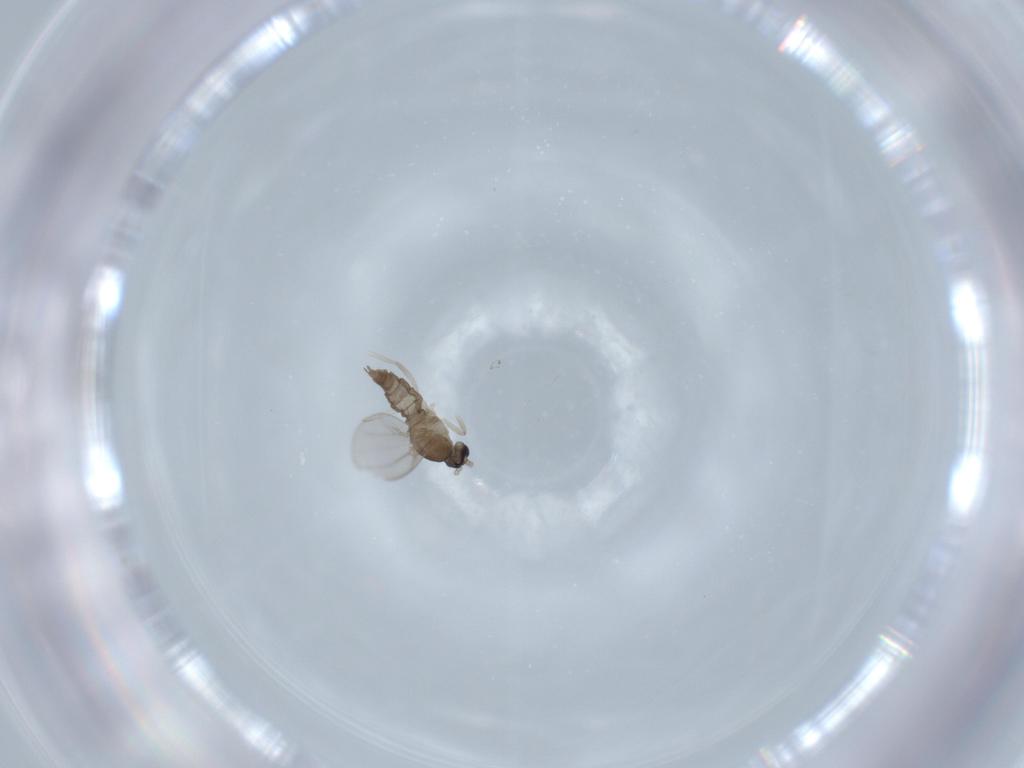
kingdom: Animalia
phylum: Arthropoda
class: Insecta
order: Diptera
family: Chironomidae
